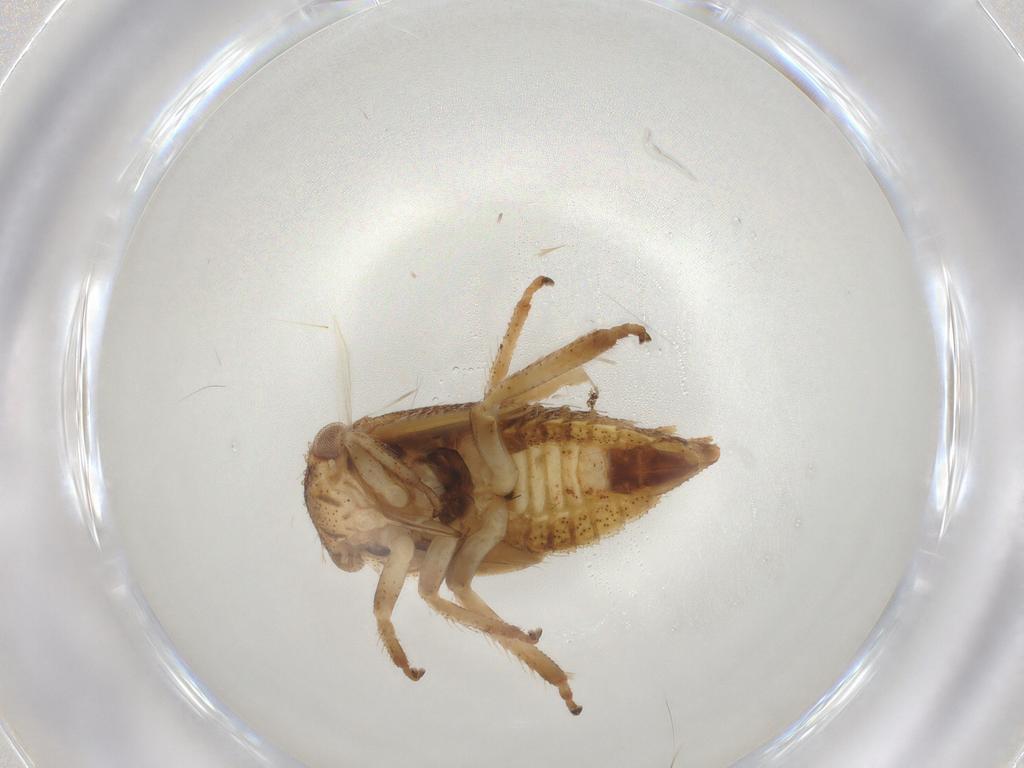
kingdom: Animalia
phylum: Arthropoda
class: Insecta
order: Hemiptera
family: Cicadellidae
